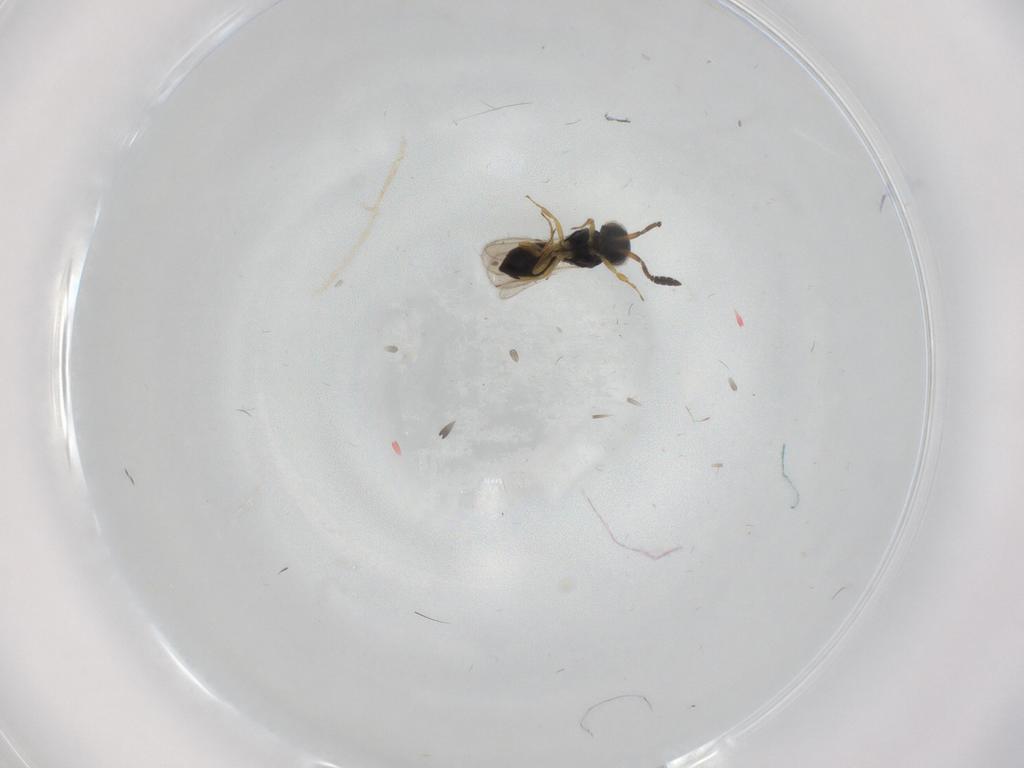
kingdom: Animalia
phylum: Arthropoda
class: Insecta
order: Hymenoptera
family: Scelionidae
